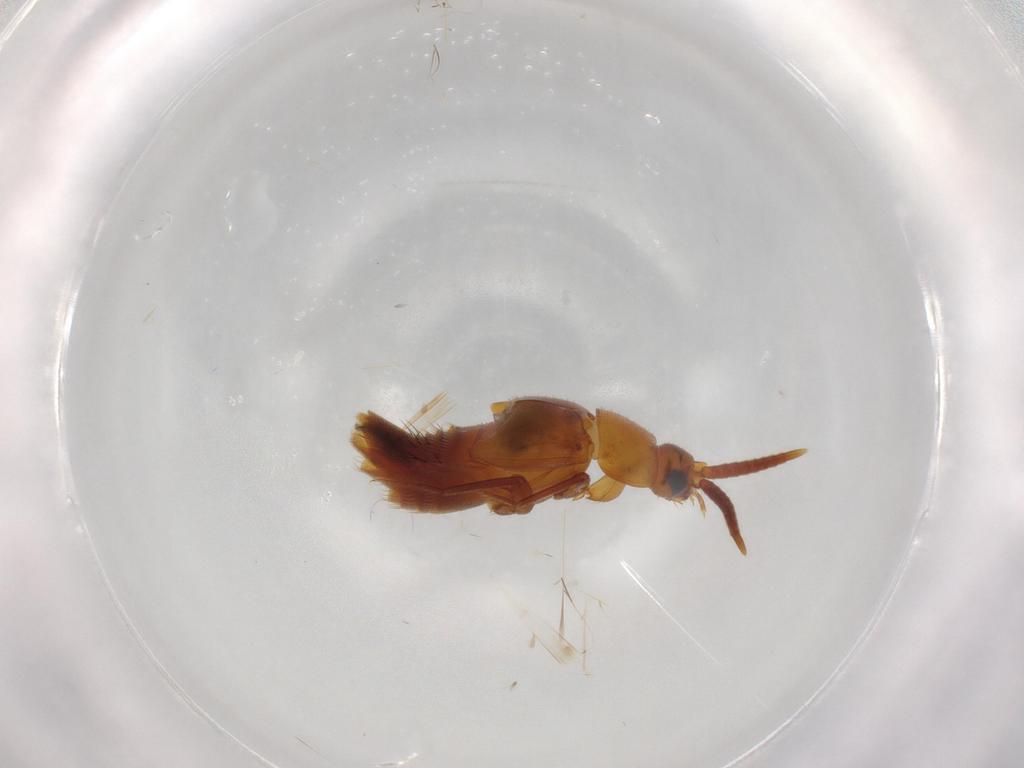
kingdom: Animalia
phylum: Arthropoda
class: Insecta
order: Coleoptera
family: Staphylinidae
